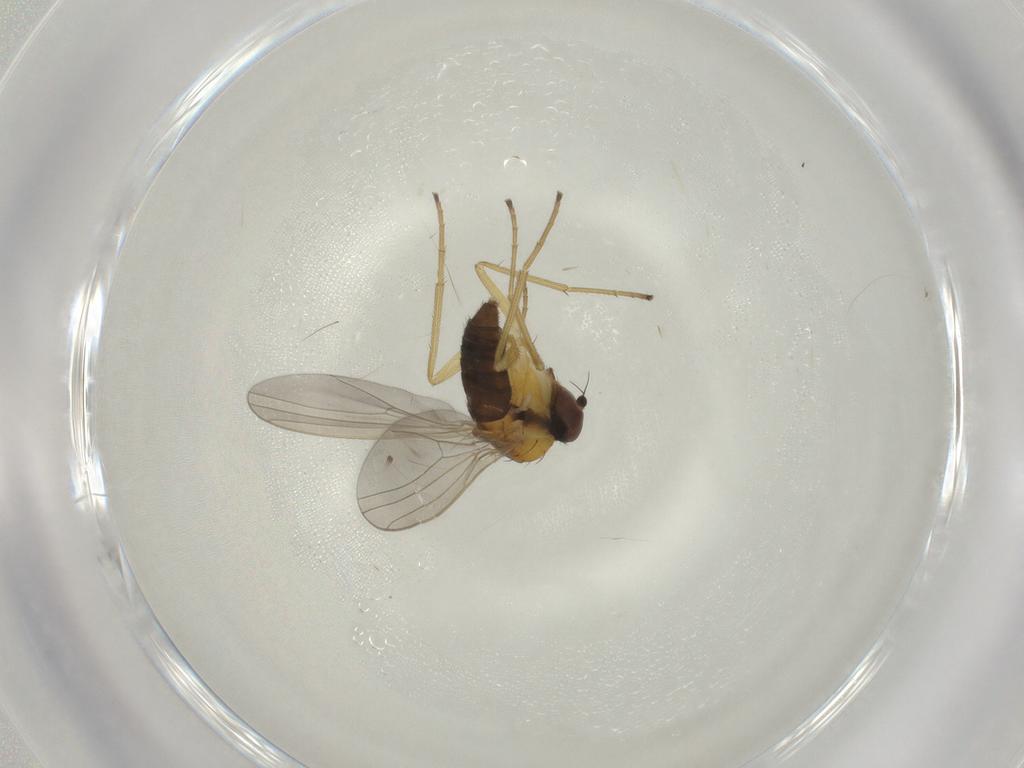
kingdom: Animalia
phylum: Arthropoda
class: Insecta
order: Diptera
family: Dolichopodidae
